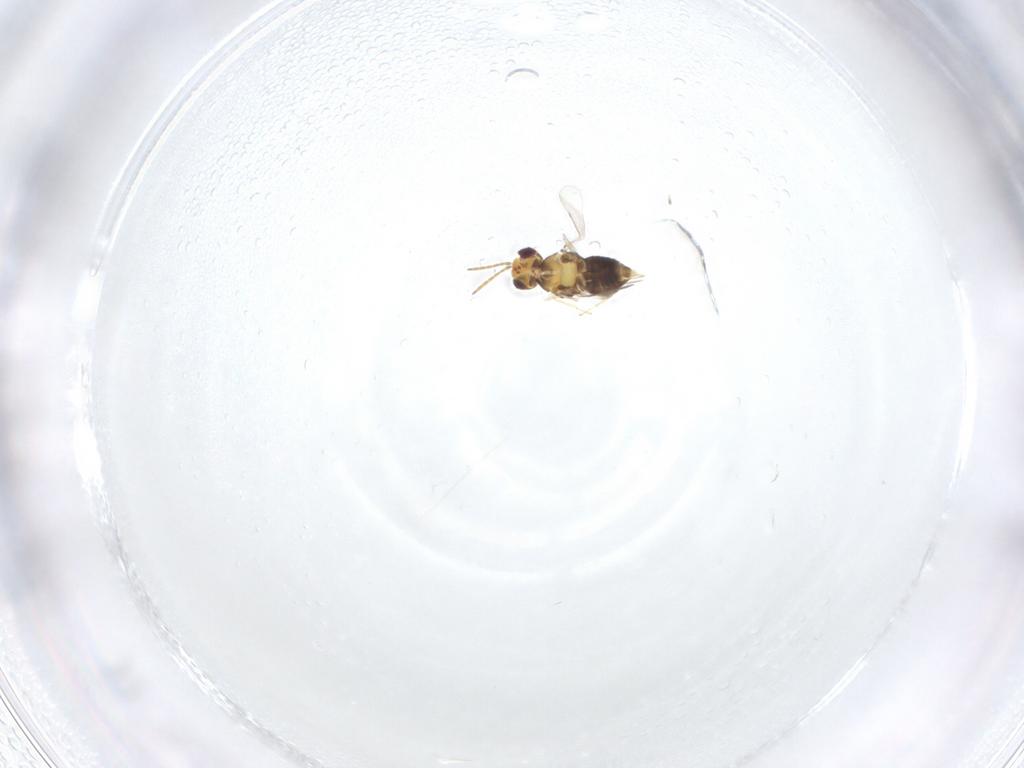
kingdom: Animalia
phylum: Arthropoda
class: Insecta
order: Hymenoptera
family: Aphelinidae
